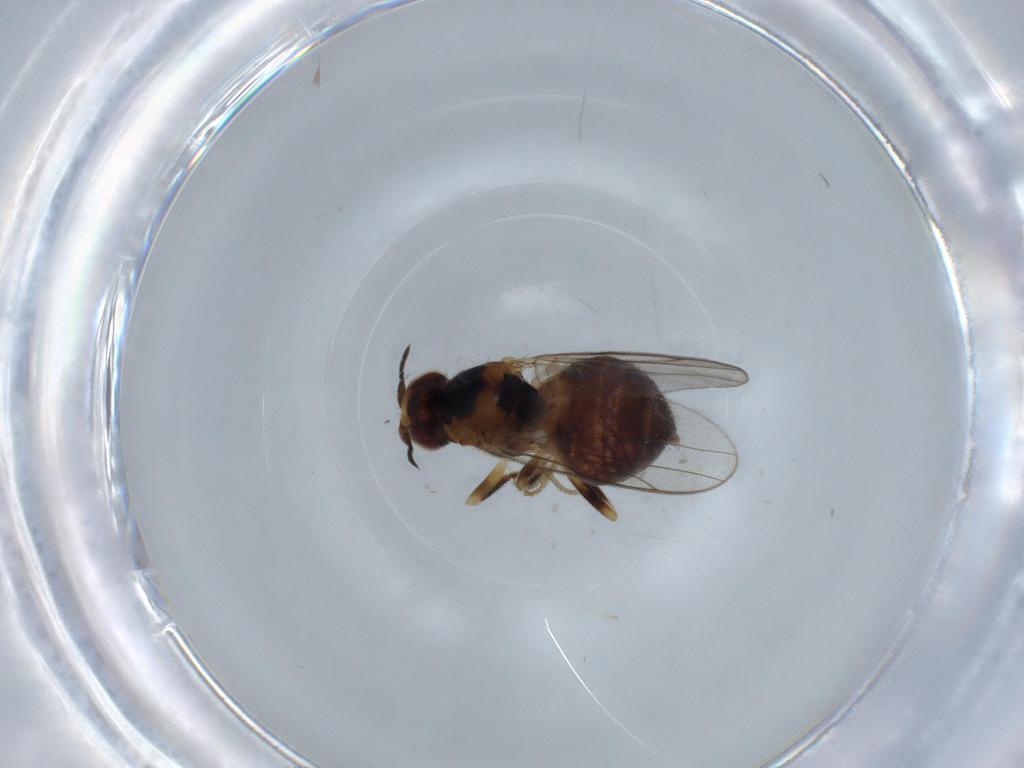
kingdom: Animalia
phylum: Arthropoda
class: Insecta
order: Diptera
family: Chloropidae
